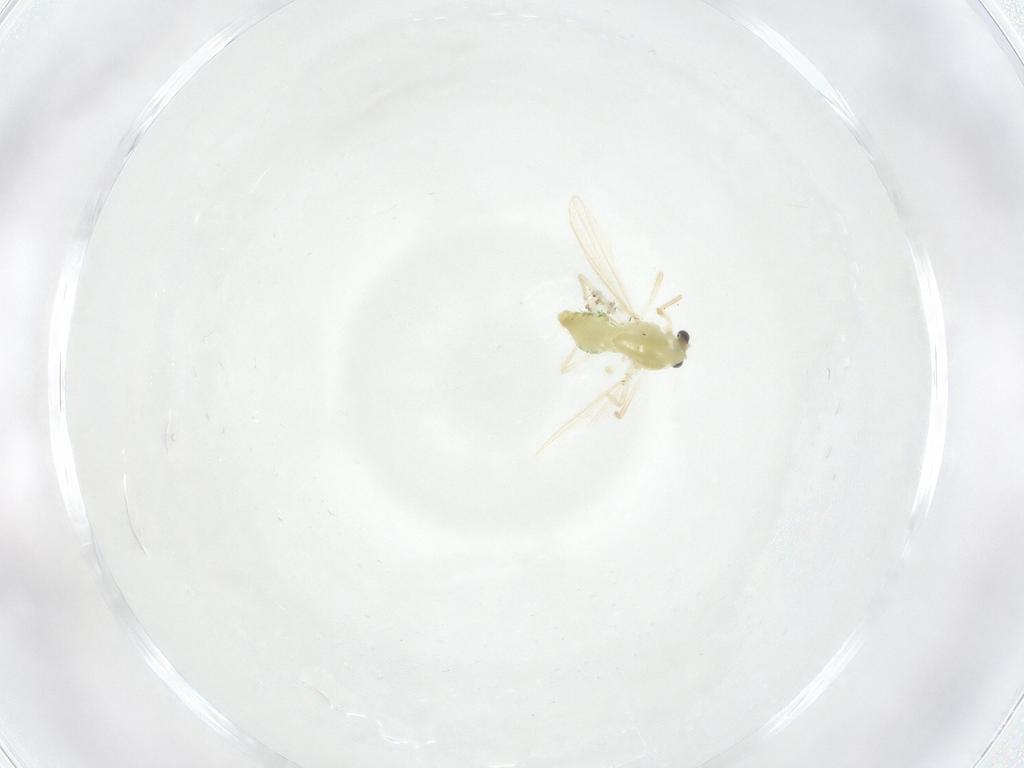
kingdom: Animalia
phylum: Arthropoda
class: Insecta
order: Diptera
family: Chironomidae
